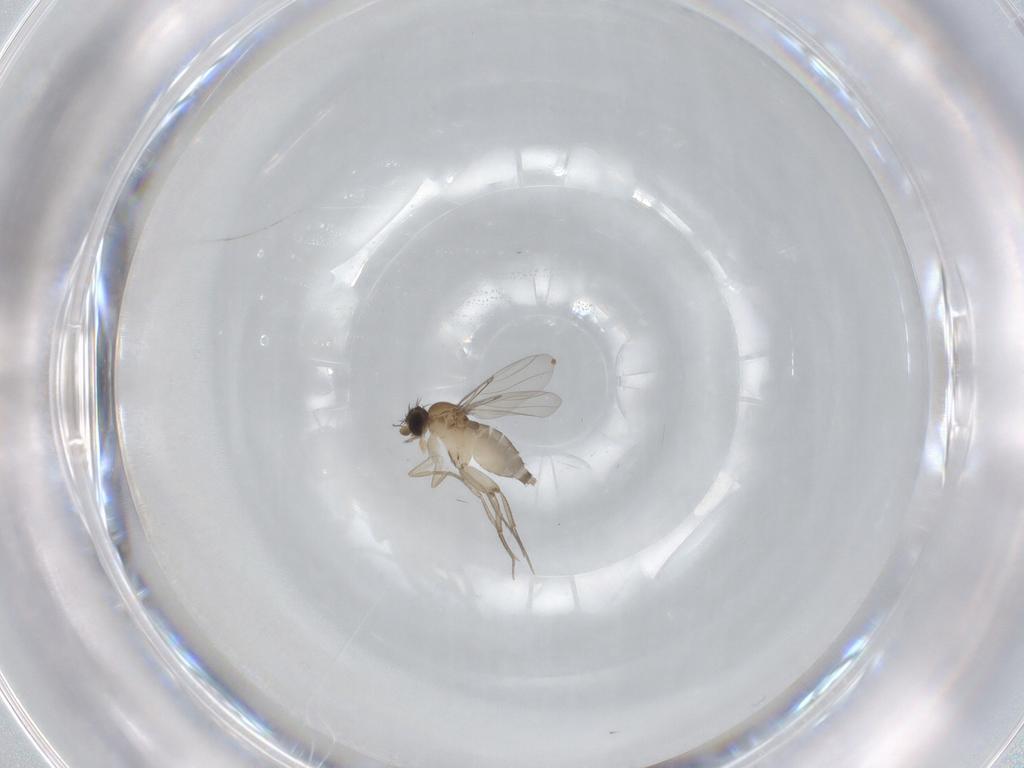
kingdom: Animalia
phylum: Arthropoda
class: Insecta
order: Diptera
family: Phoridae
